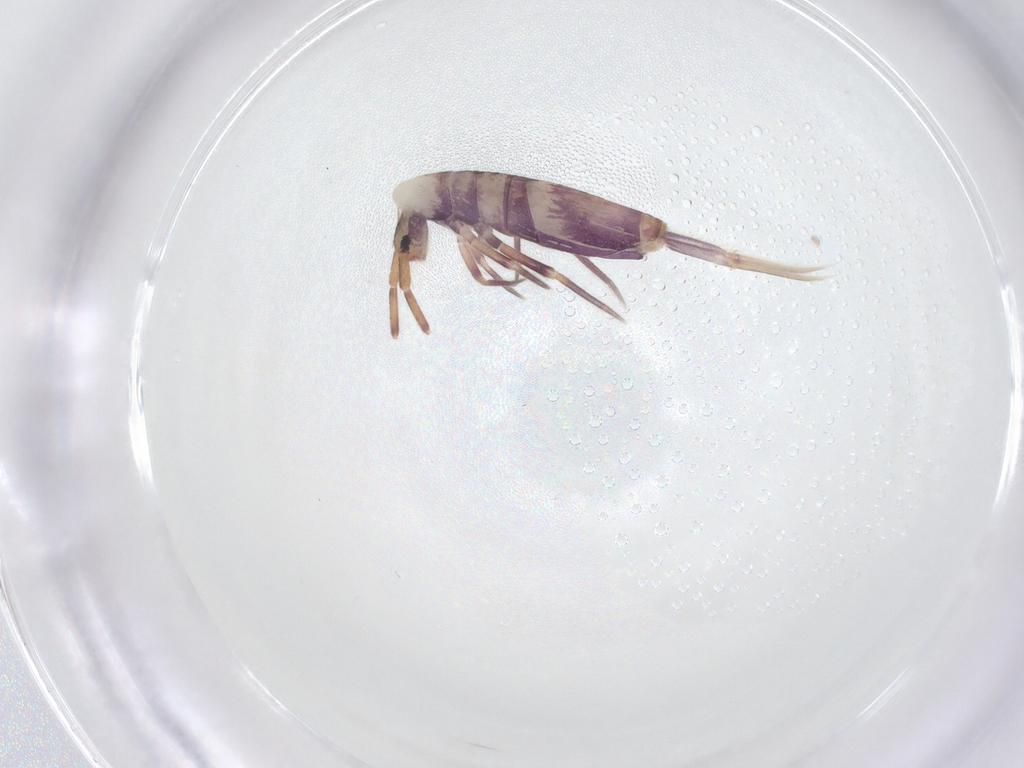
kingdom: Animalia
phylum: Arthropoda
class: Collembola
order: Entomobryomorpha
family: Entomobryidae
